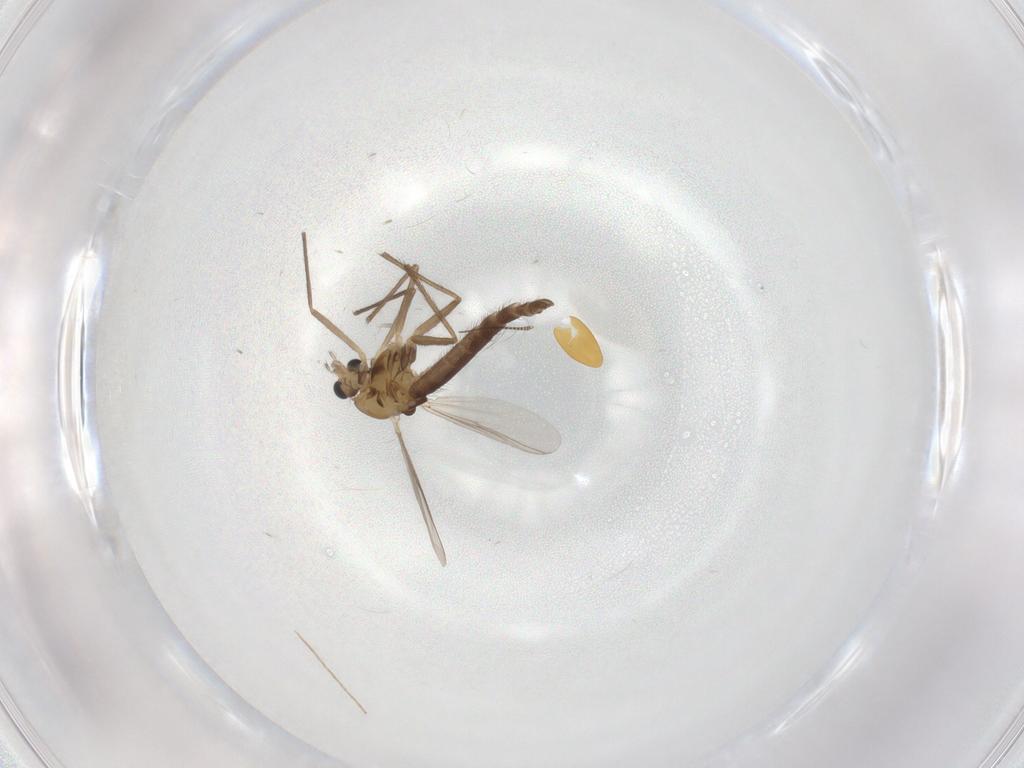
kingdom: Animalia
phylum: Arthropoda
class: Insecta
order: Diptera
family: Chironomidae
